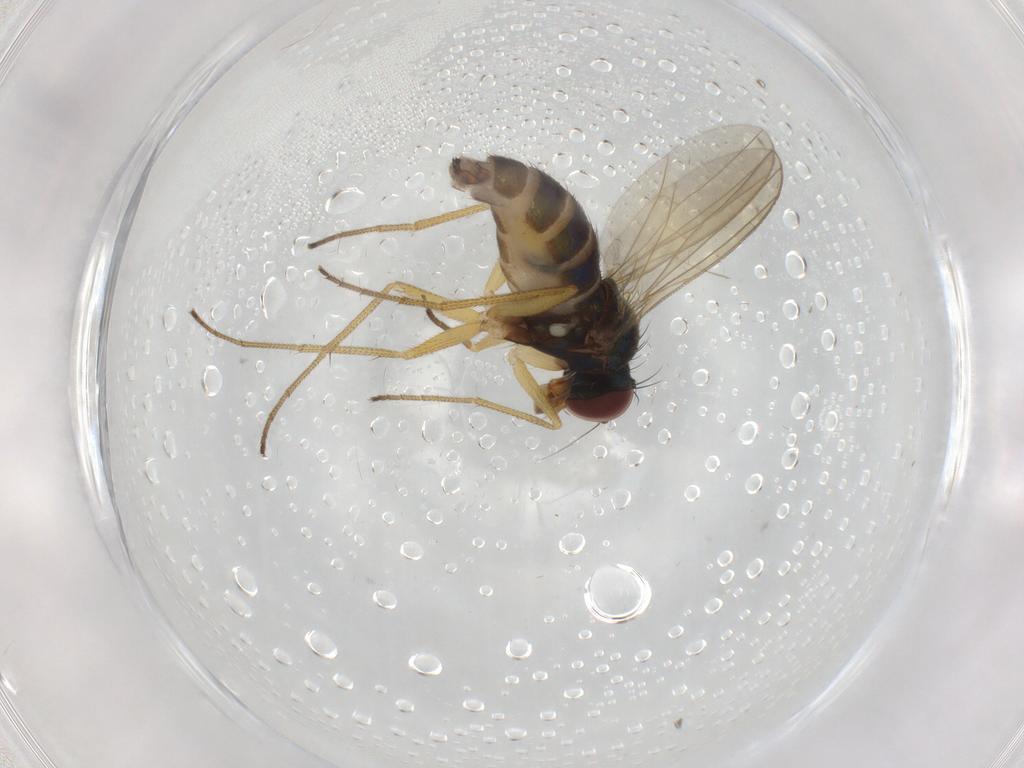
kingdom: Animalia
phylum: Arthropoda
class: Insecta
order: Diptera
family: Dolichopodidae
